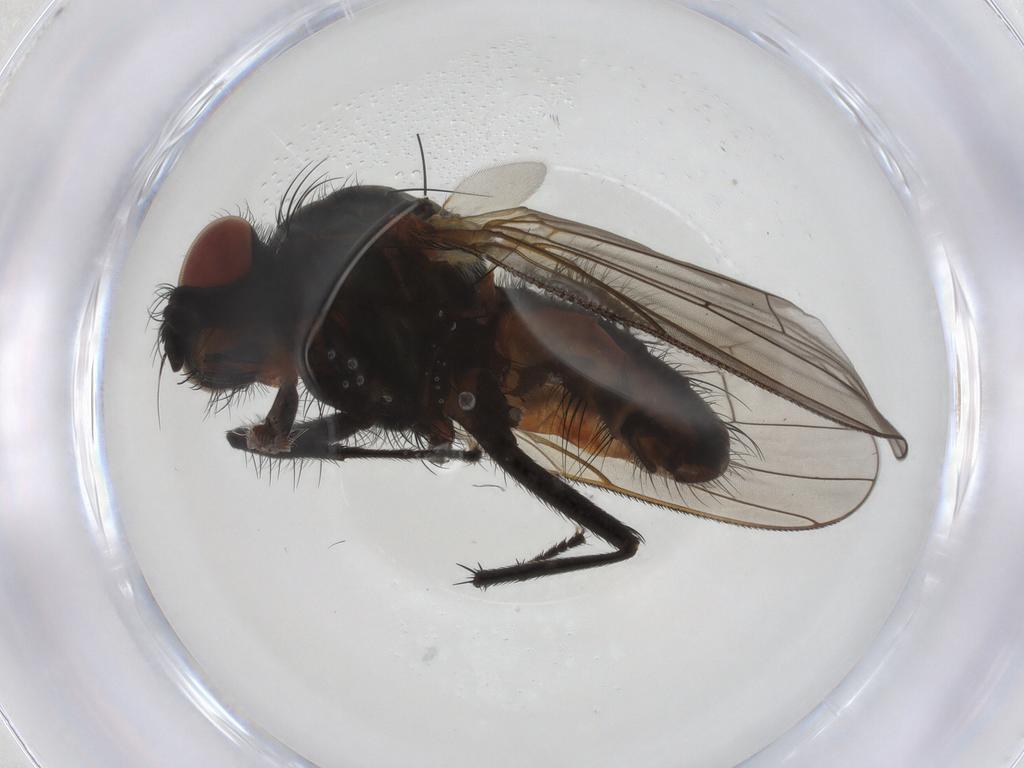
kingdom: Animalia
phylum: Arthropoda
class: Insecta
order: Diptera
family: Anthomyiidae
